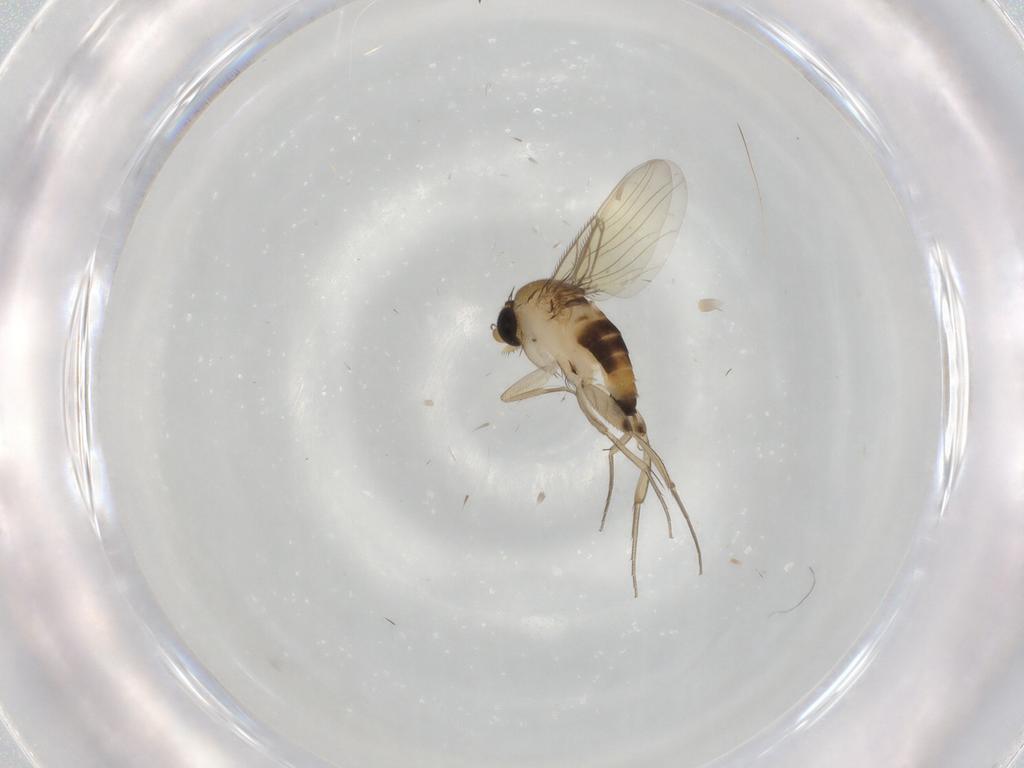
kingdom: Animalia
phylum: Arthropoda
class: Insecta
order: Diptera
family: Phoridae
